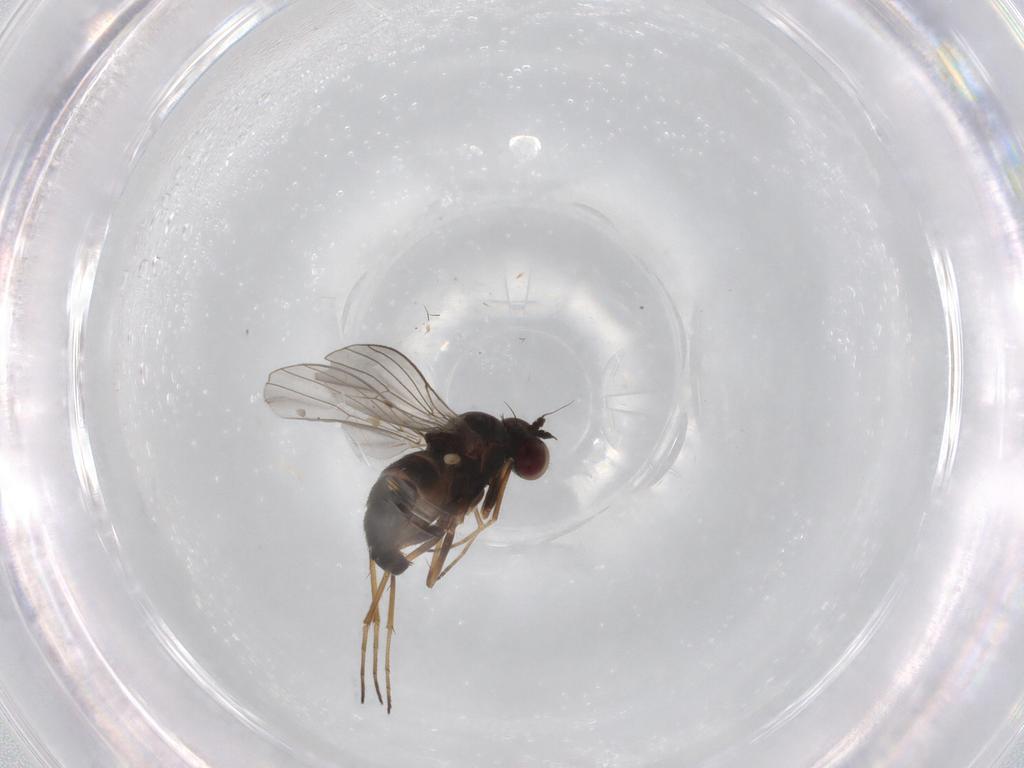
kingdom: Animalia
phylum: Arthropoda
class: Insecta
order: Diptera
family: Dolichopodidae
